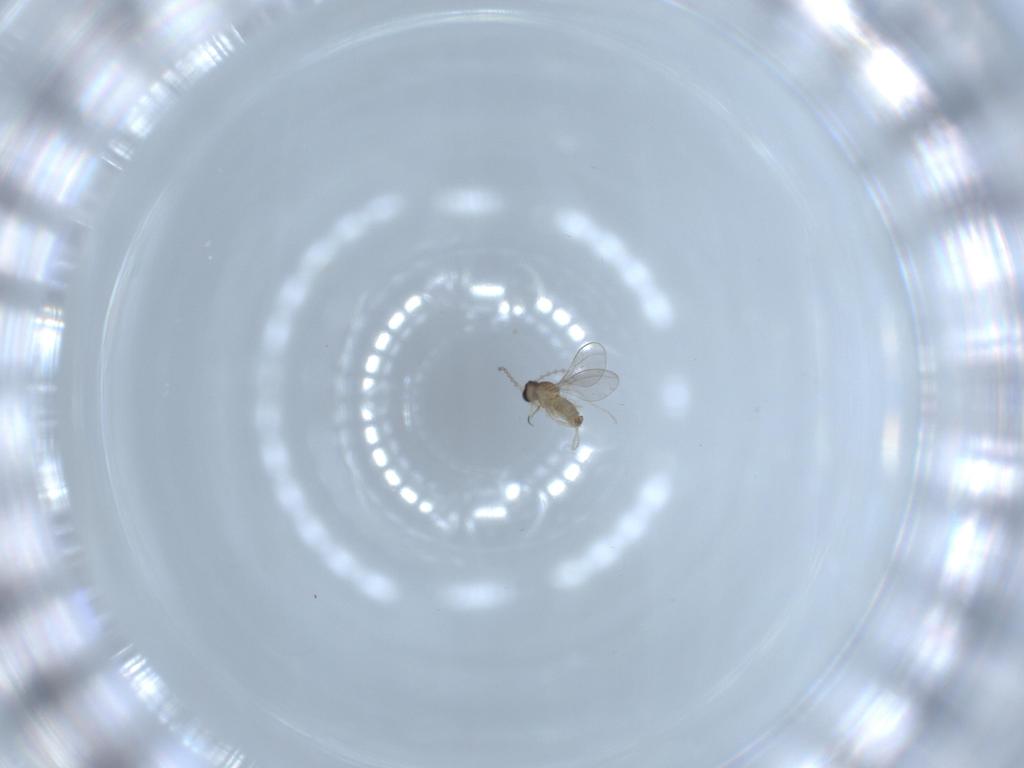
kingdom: Animalia
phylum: Arthropoda
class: Insecta
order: Diptera
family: Cecidomyiidae
